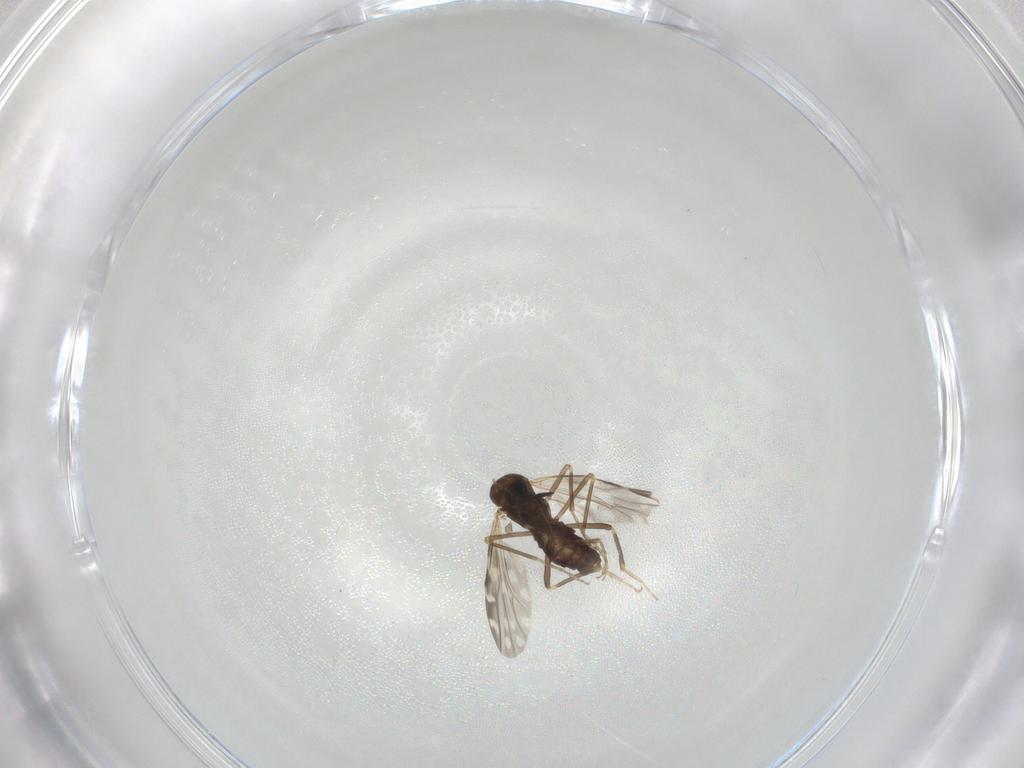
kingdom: Animalia
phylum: Arthropoda
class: Insecta
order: Diptera
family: Ceratopogonidae
